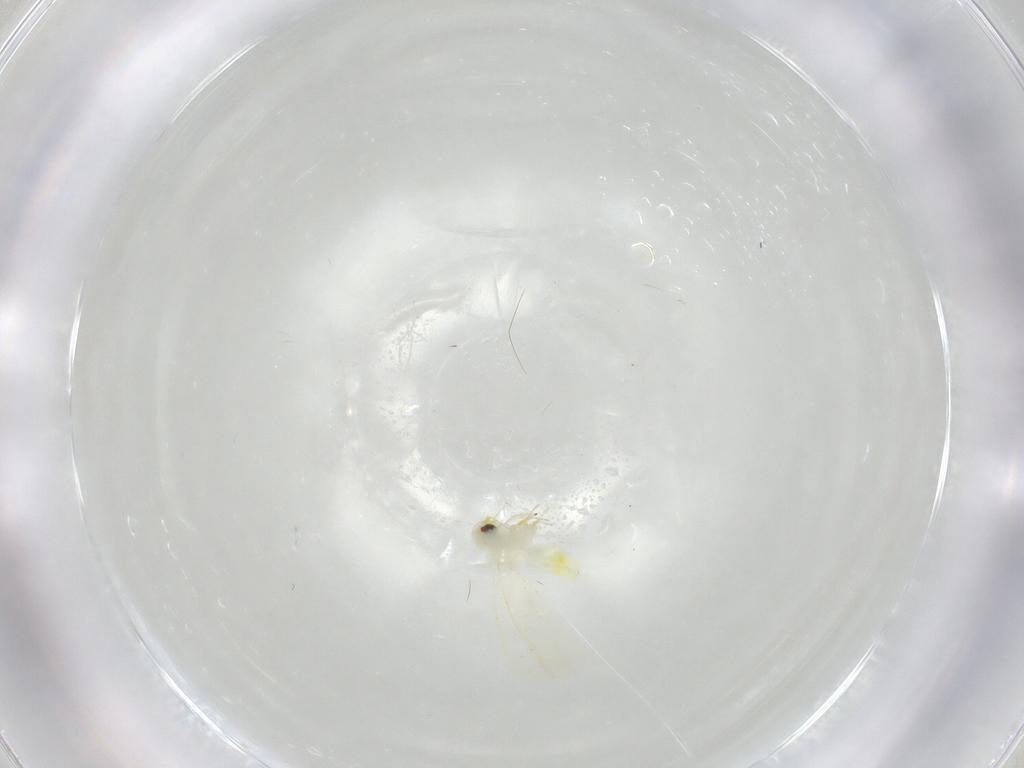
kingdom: Animalia
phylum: Arthropoda
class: Insecta
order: Hemiptera
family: Aleyrodidae
